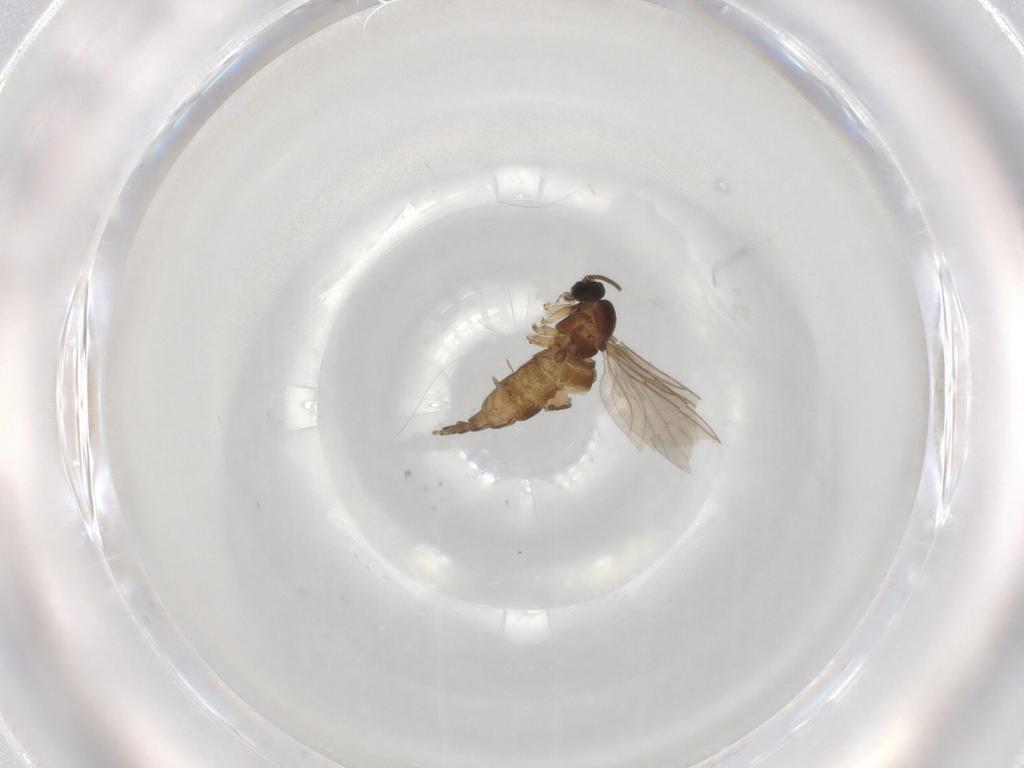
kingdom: Animalia
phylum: Arthropoda
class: Insecta
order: Diptera
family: Sciaridae
